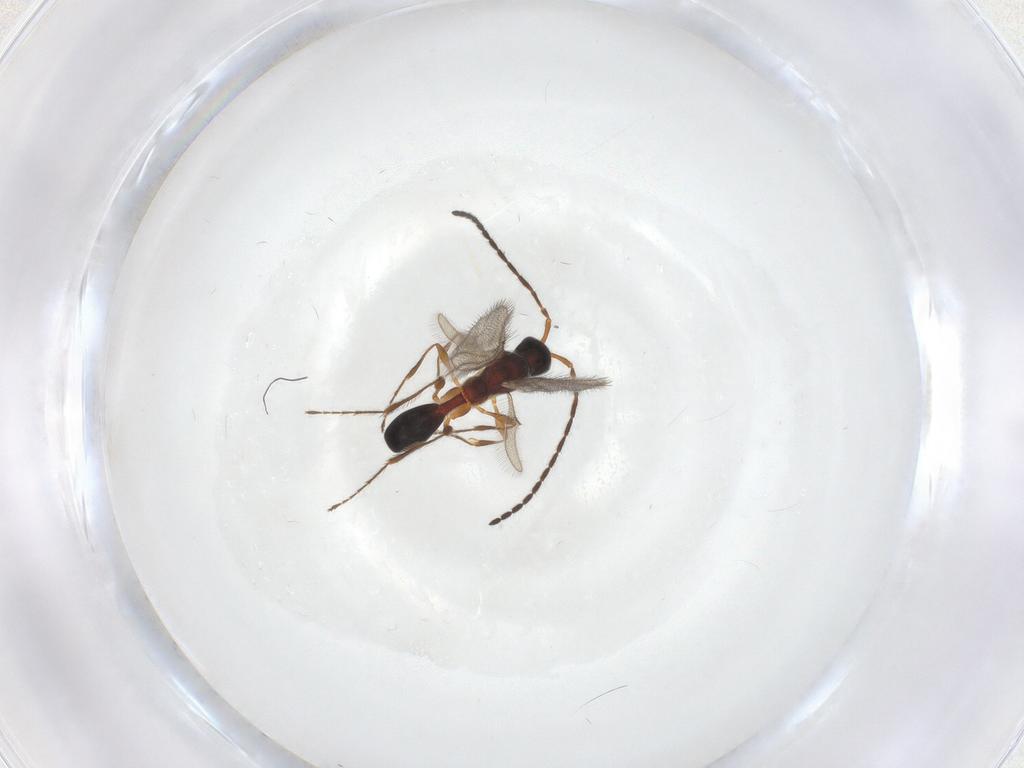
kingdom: Animalia
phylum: Arthropoda
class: Insecta
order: Hymenoptera
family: Diapriidae
